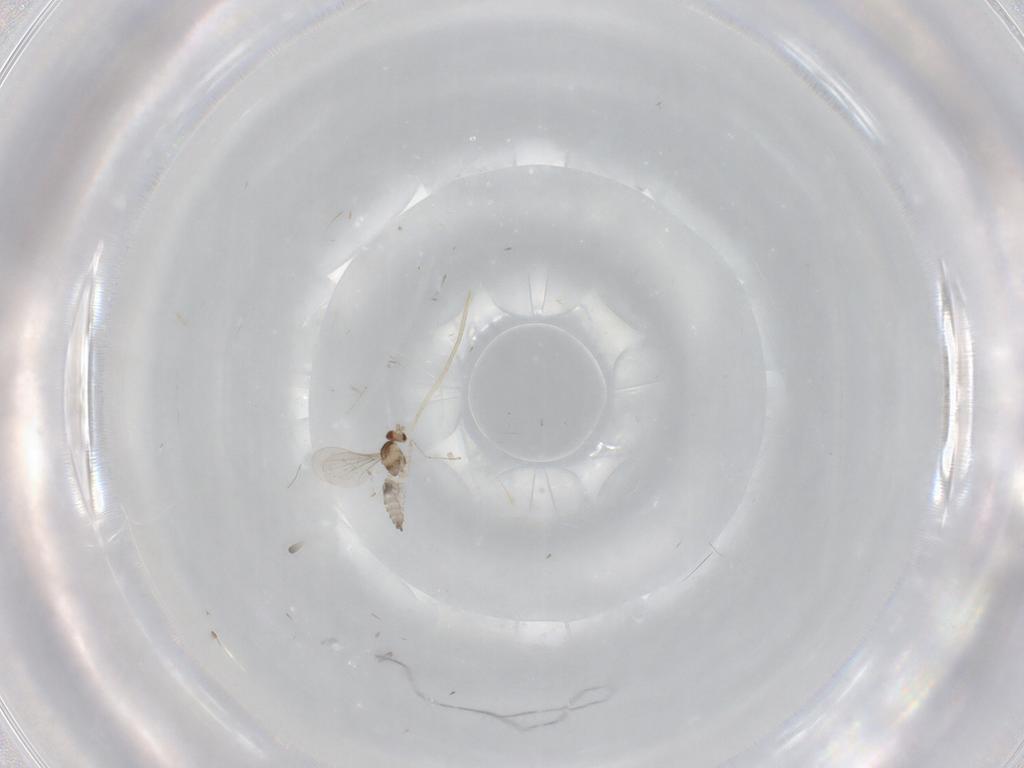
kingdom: Animalia
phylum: Arthropoda
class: Insecta
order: Diptera
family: Cecidomyiidae
